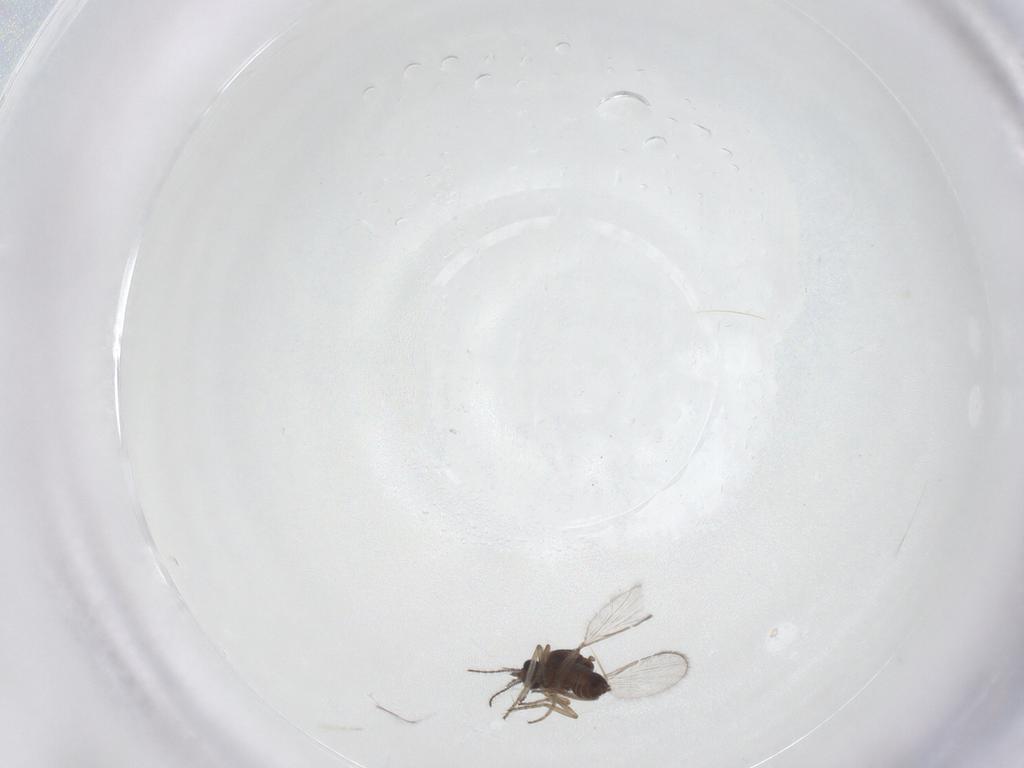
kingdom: Animalia
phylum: Arthropoda
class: Insecta
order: Diptera
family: Ceratopogonidae
